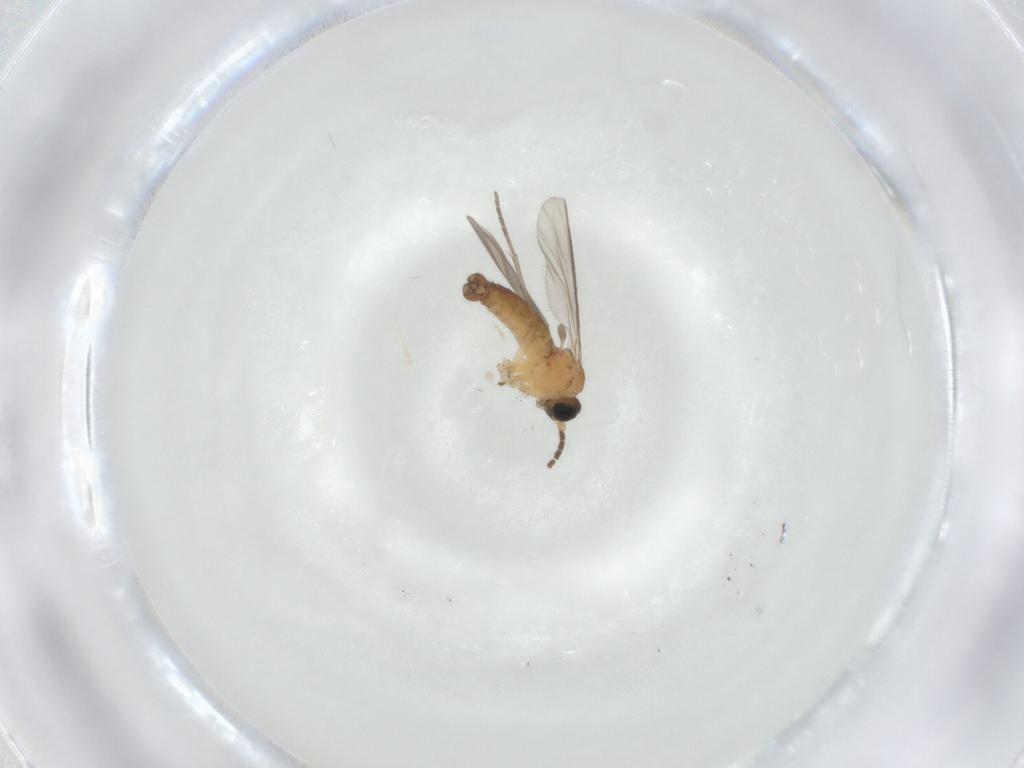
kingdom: Animalia
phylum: Arthropoda
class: Insecta
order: Diptera
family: Sciaridae
